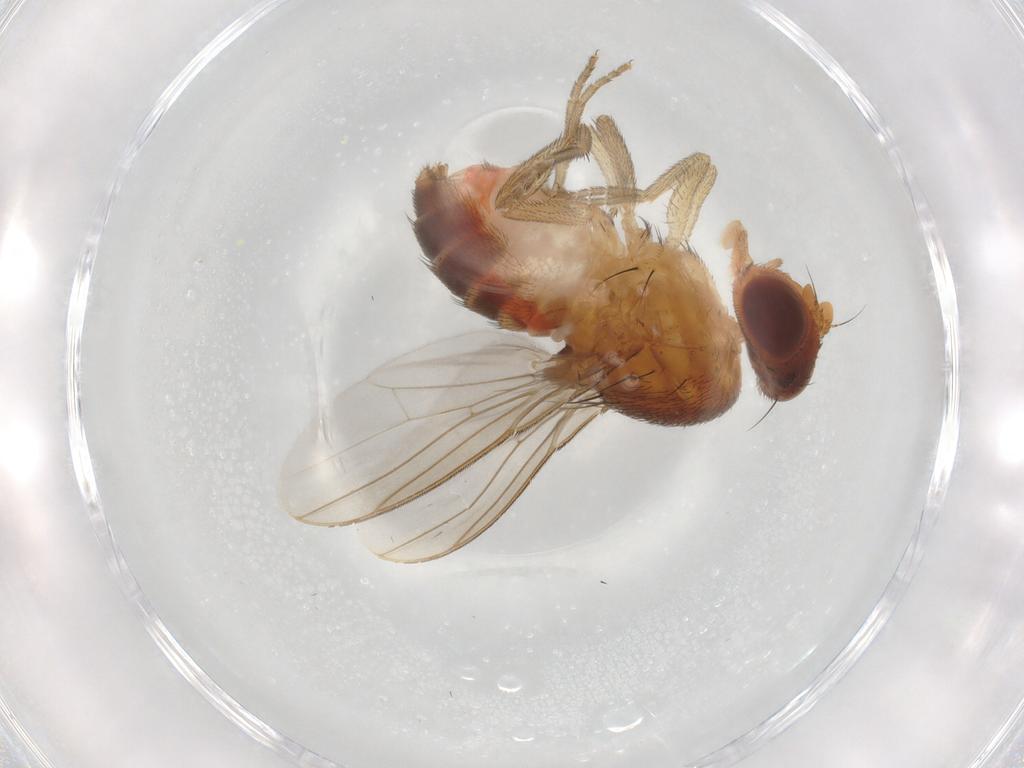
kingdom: Animalia
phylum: Arthropoda
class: Insecta
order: Diptera
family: Drosophilidae
